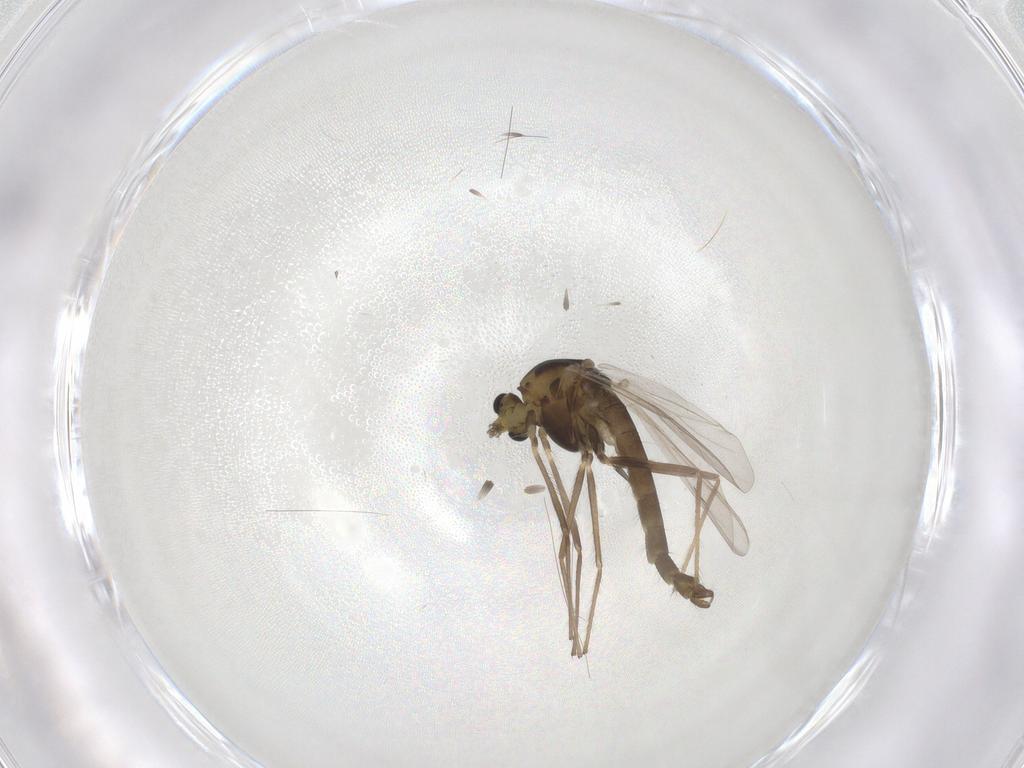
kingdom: Animalia
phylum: Arthropoda
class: Insecta
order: Diptera
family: Chironomidae
